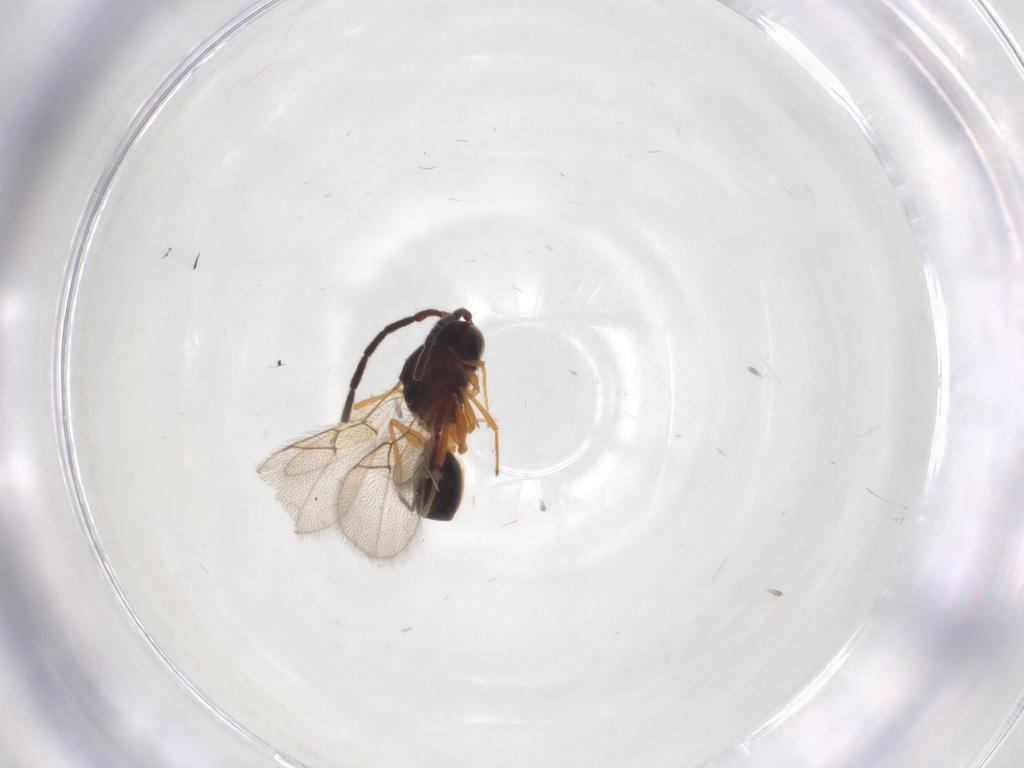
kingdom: Animalia
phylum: Arthropoda
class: Insecta
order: Hymenoptera
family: Figitidae
